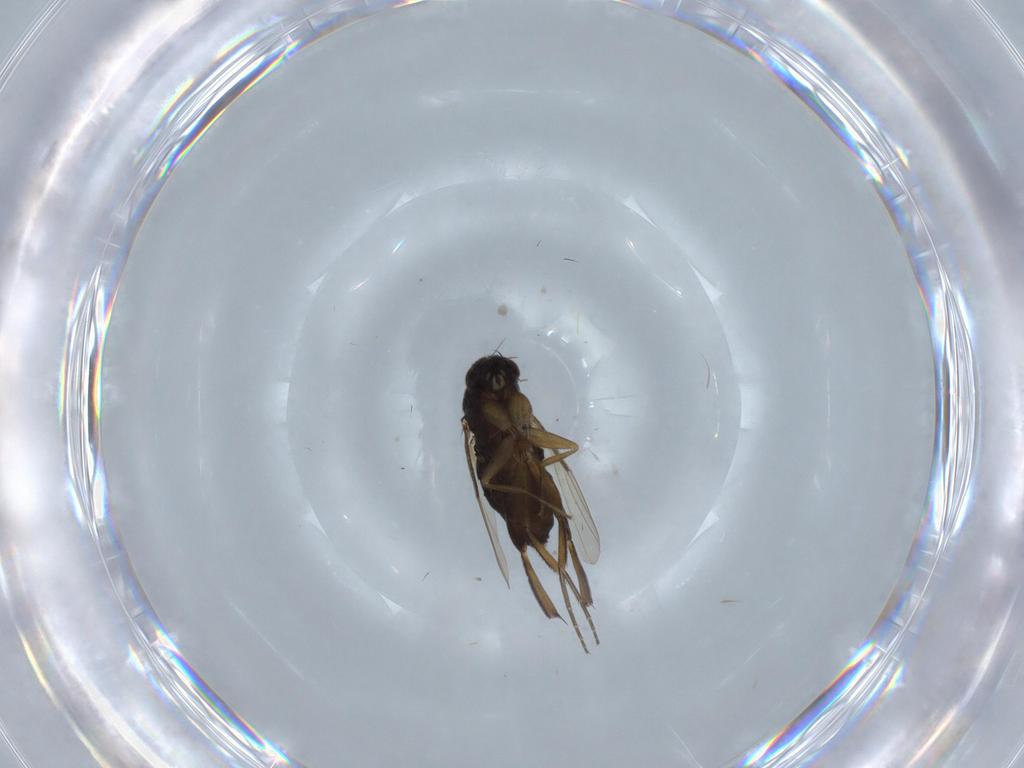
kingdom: Animalia
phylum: Arthropoda
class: Insecta
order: Diptera
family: Phoridae
